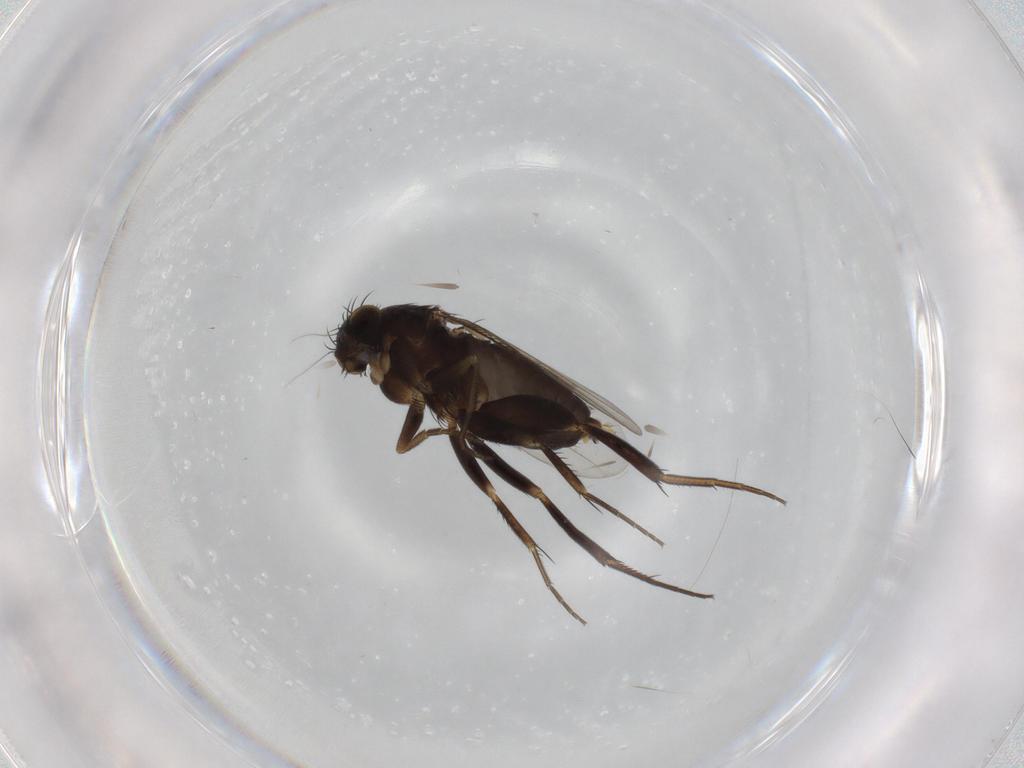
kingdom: Animalia
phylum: Arthropoda
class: Insecta
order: Diptera
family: Phoridae
